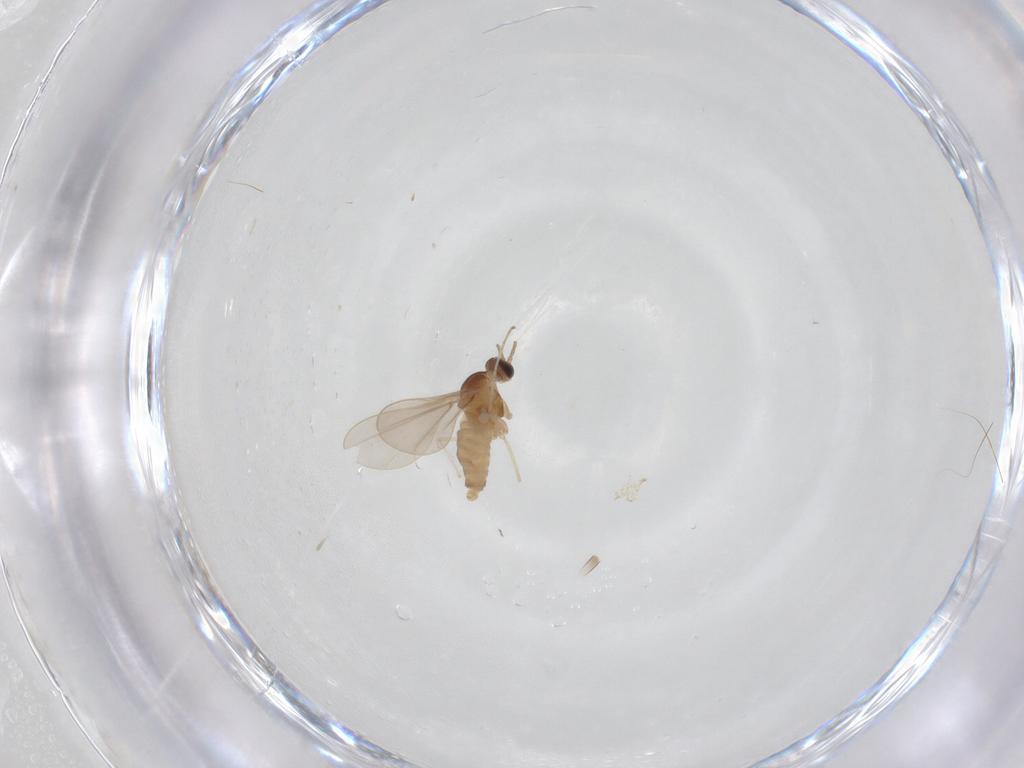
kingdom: Animalia
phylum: Arthropoda
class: Insecta
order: Diptera
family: Cecidomyiidae
